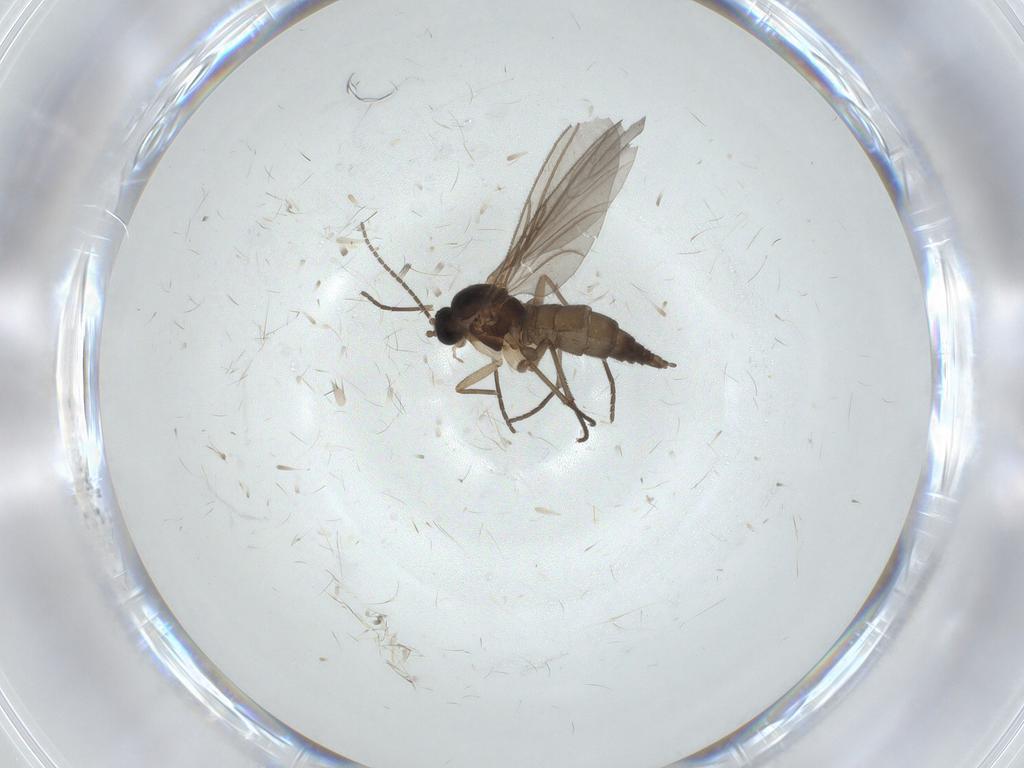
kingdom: Animalia
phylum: Arthropoda
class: Insecta
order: Diptera
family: Sciaridae
